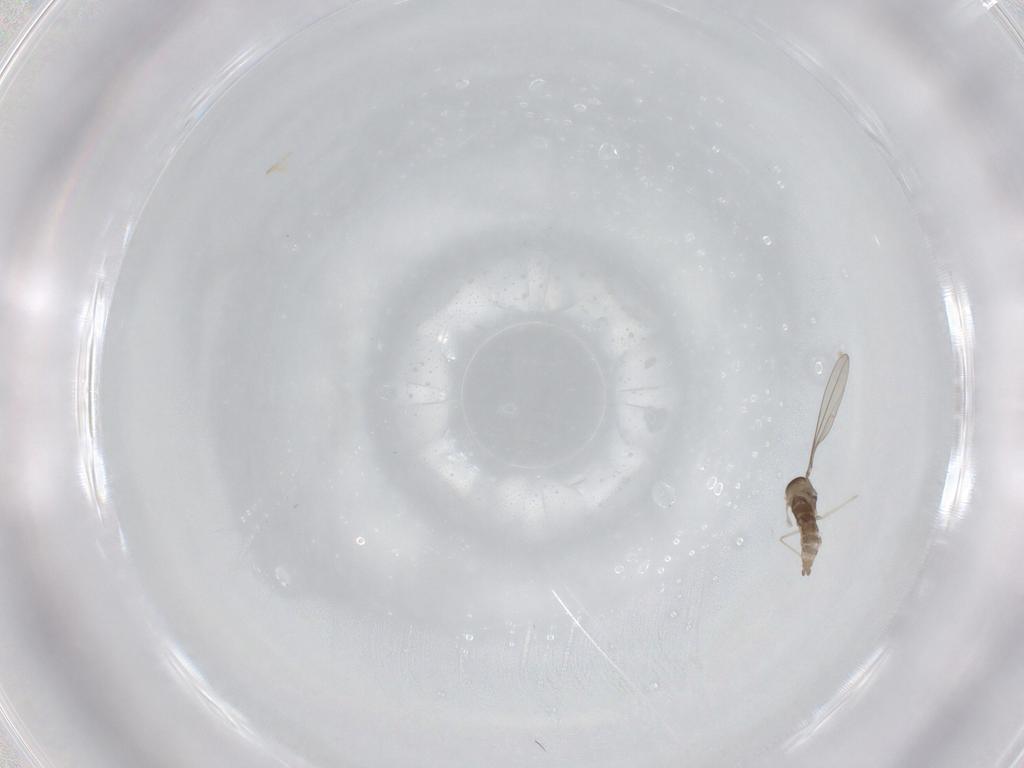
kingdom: Animalia
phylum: Arthropoda
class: Insecta
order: Diptera
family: Cecidomyiidae
